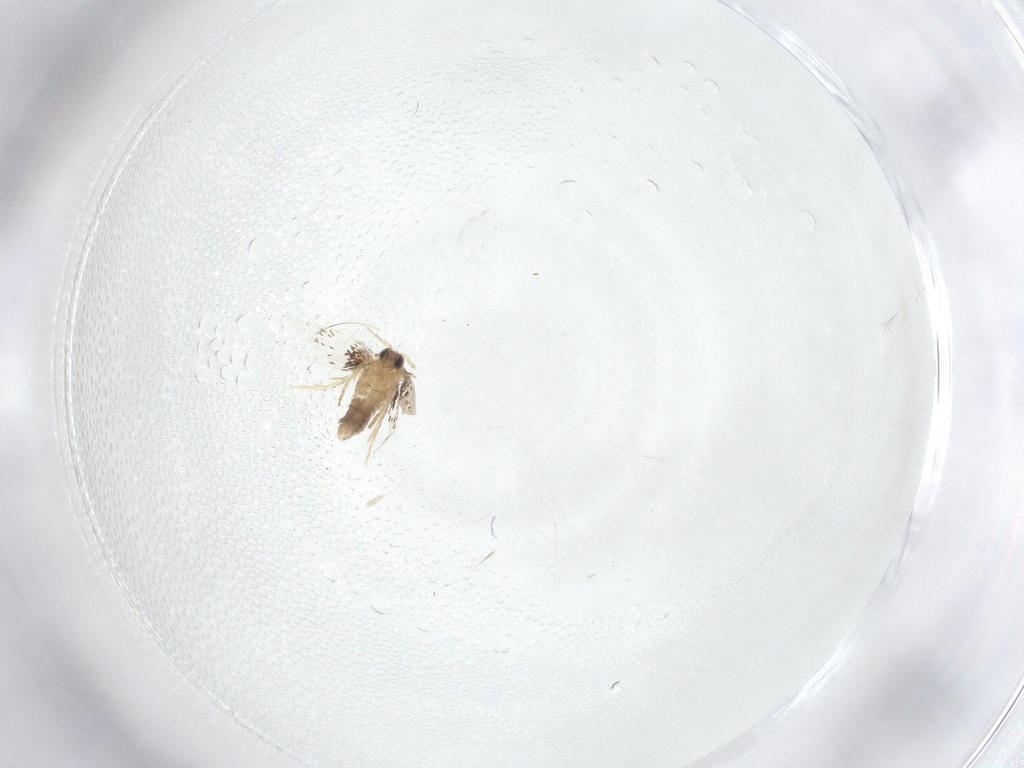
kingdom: Animalia
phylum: Arthropoda
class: Insecta
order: Lepidoptera
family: Nepticulidae
